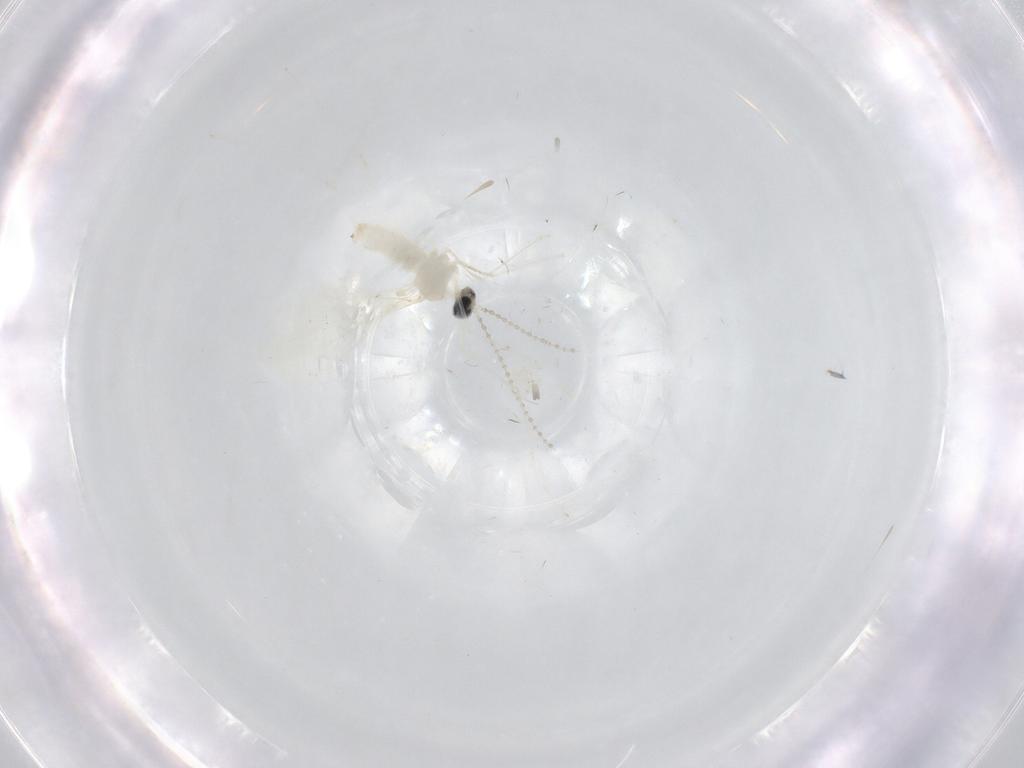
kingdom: Animalia
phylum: Arthropoda
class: Insecta
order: Diptera
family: Cecidomyiidae
